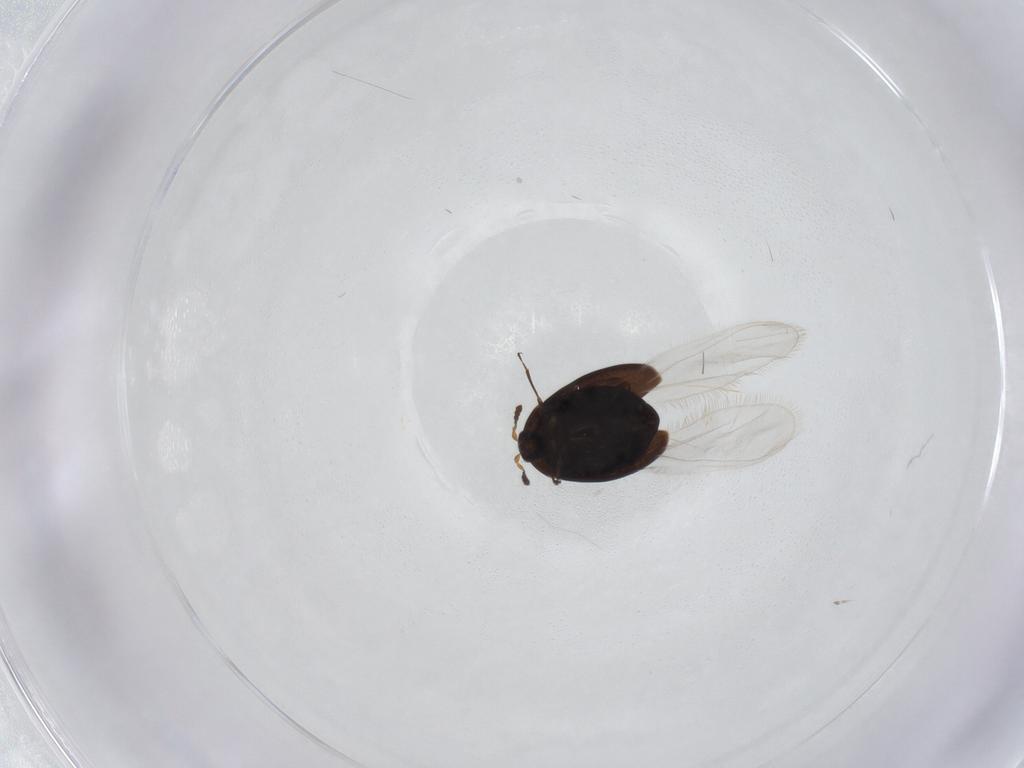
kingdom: Animalia
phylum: Arthropoda
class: Insecta
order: Coleoptera
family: Corylophidae
